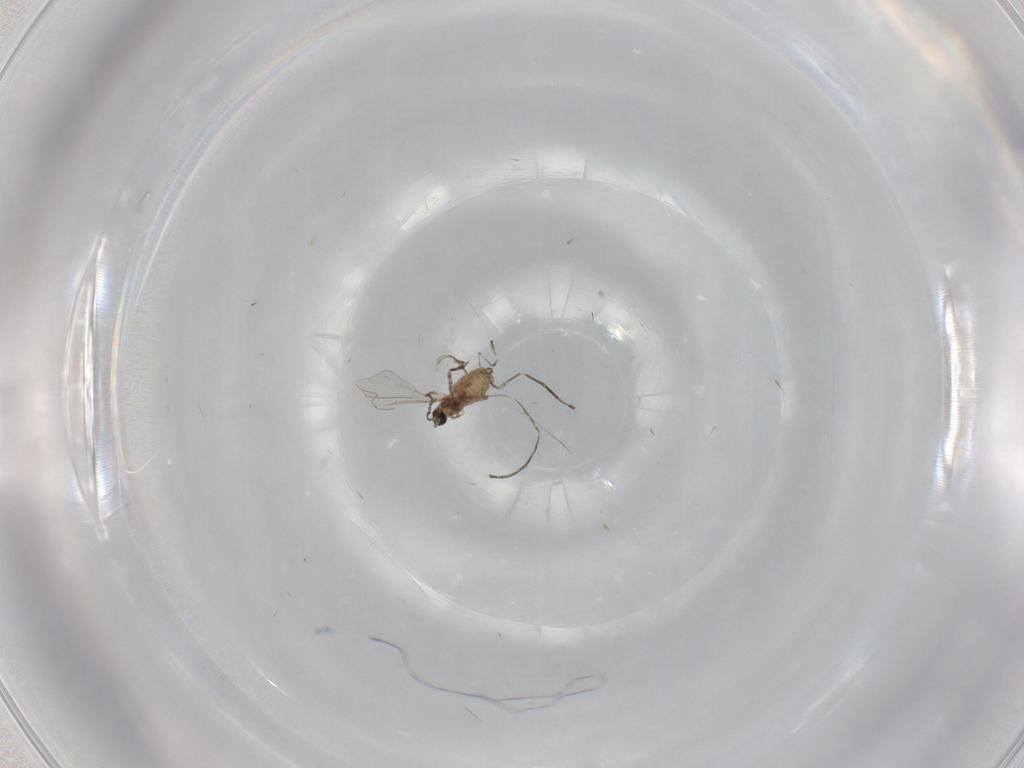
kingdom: Animalia
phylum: Arthropoda
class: Insecta
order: Diptera
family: Cecidomyiidae
